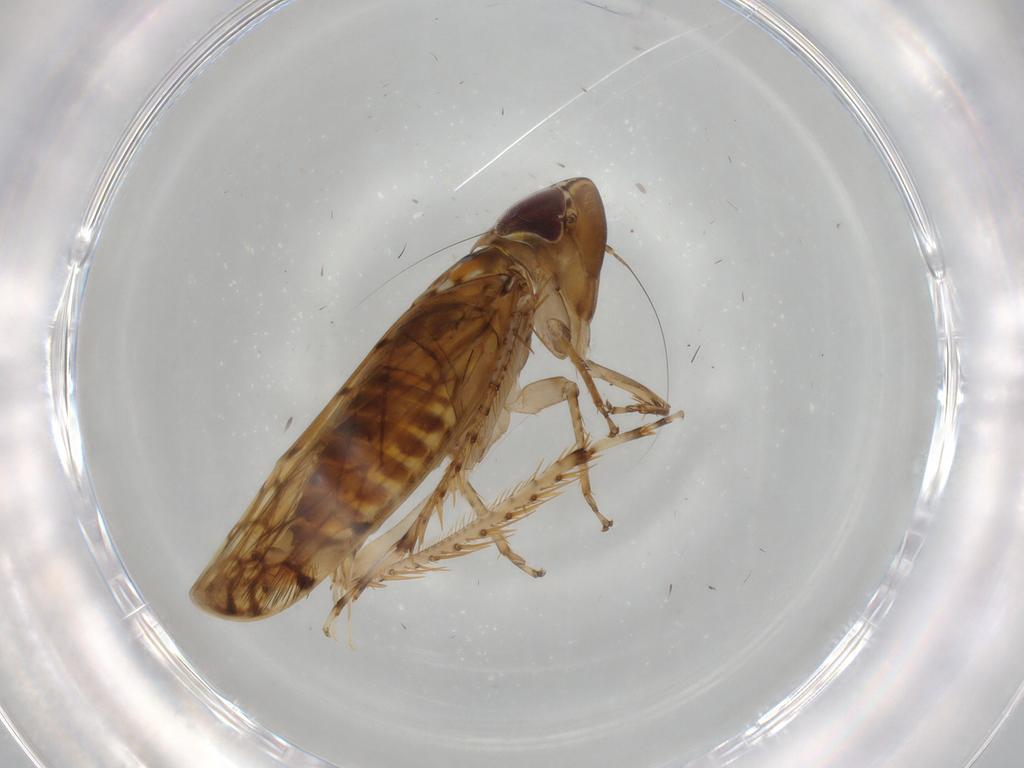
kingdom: Animalia
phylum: Arthropoda
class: Insecta
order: Hemiptera
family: Cicadellidae
